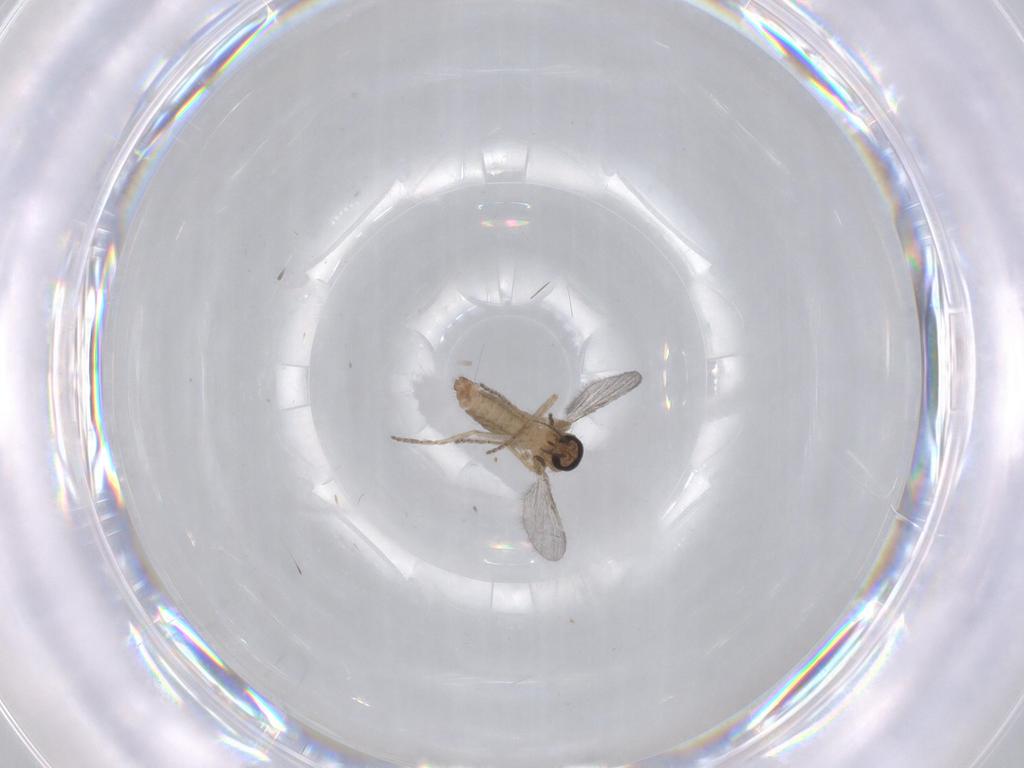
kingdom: Animalia
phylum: Arthropoda
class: Insecta
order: Diptera
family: Ceratopogonidae
